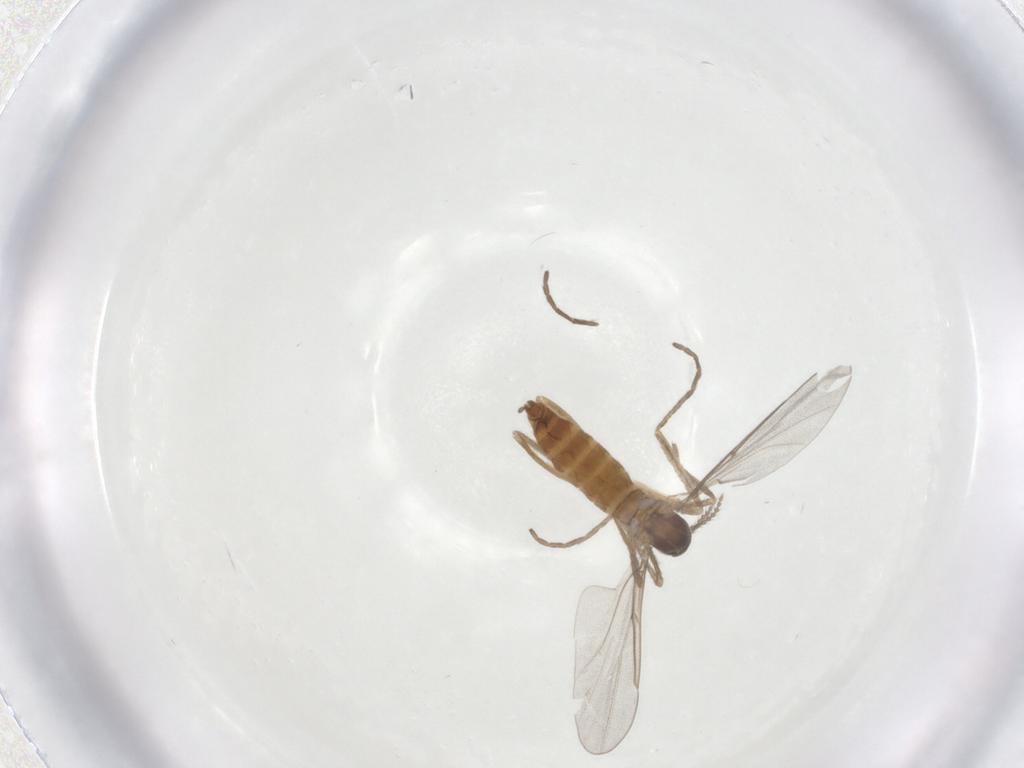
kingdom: Animalia
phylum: Arthropoda
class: Insecta
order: Diptera
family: Cecidomyiidae
